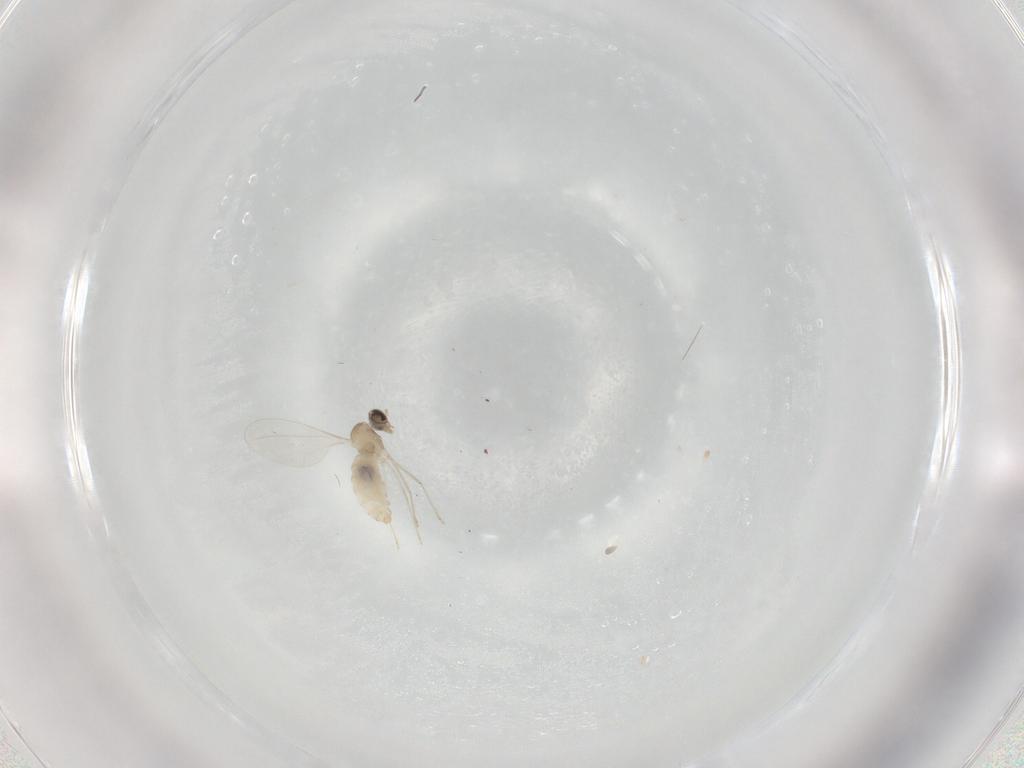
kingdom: Animalia
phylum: Arthropoda
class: Insecta
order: Diptera
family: Cecidomyiidae
